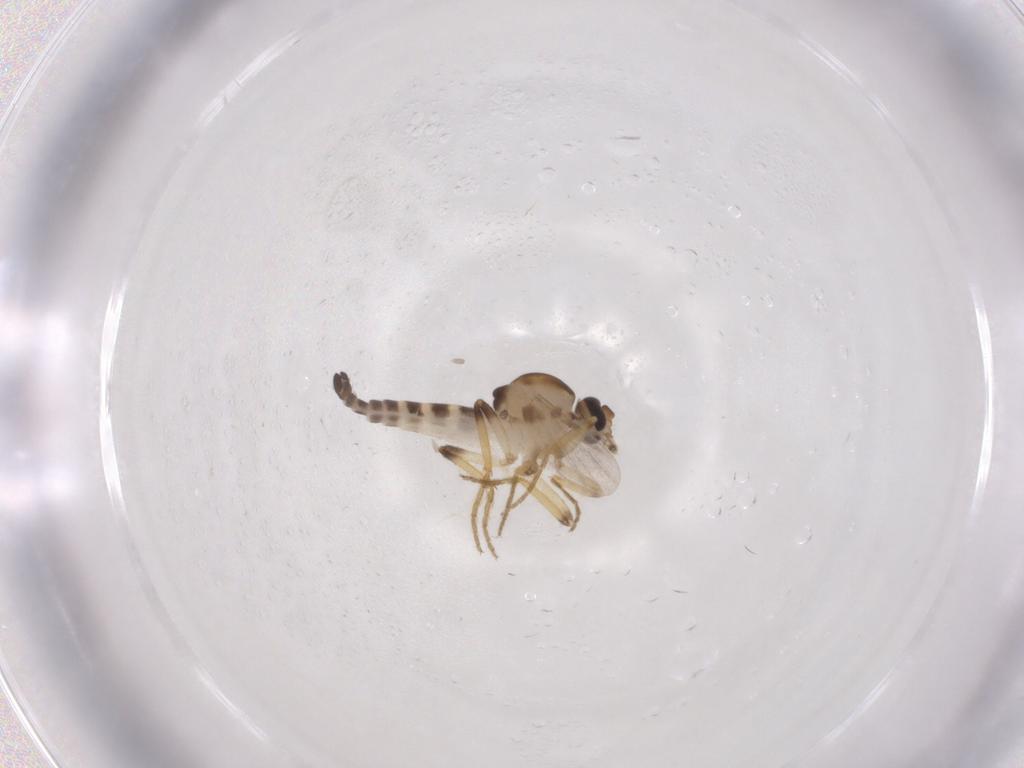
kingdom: Animalia
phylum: Arthropoda
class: Insecta
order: Diptera
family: Ceratopogonidae
